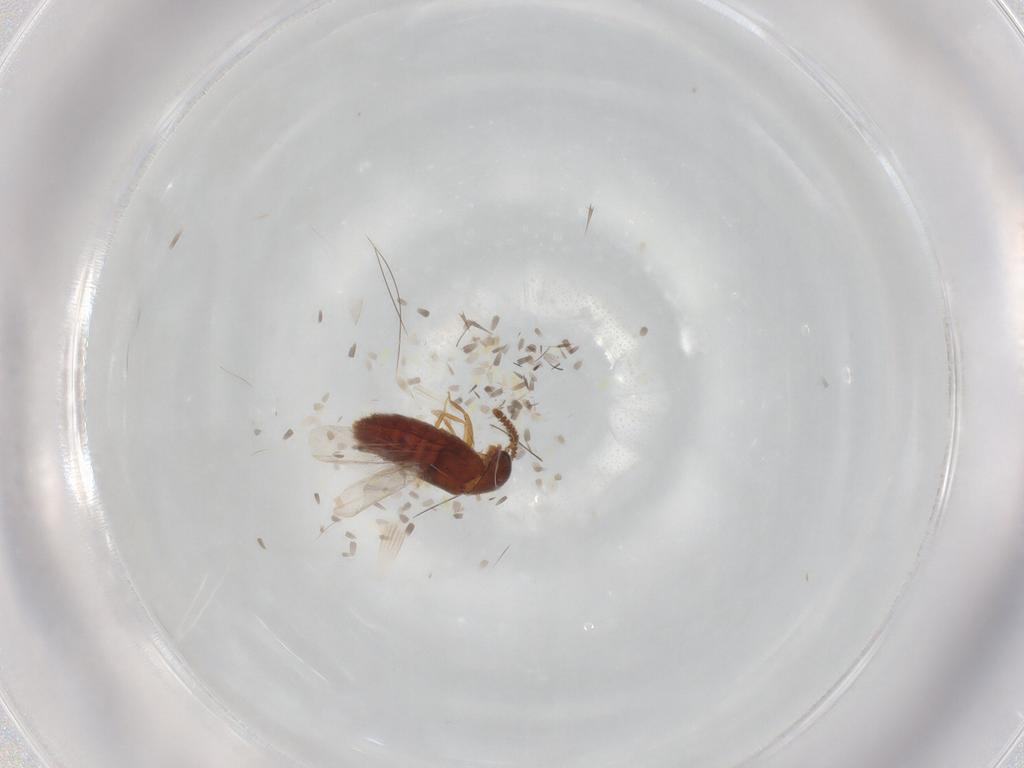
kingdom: Animalia
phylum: Arthropoda
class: Insecta
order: Coleoptera
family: Staphylinidae
